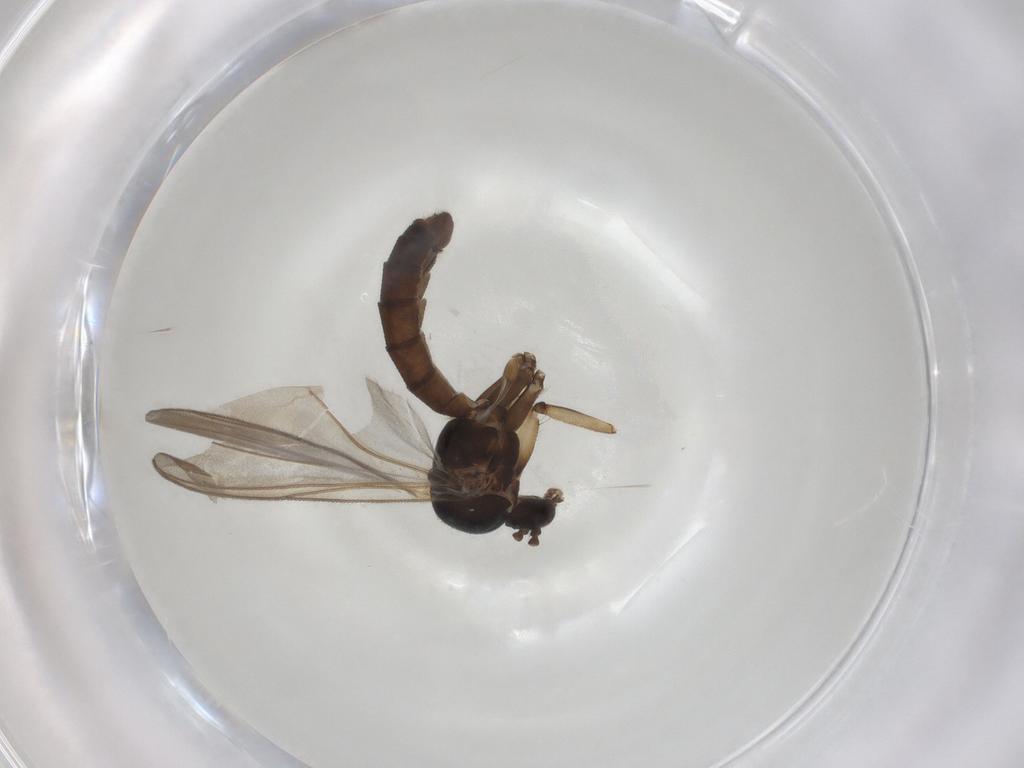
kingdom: Animalia
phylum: Arthropoda
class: Insecta
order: Diptera
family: Mycetophilidae
